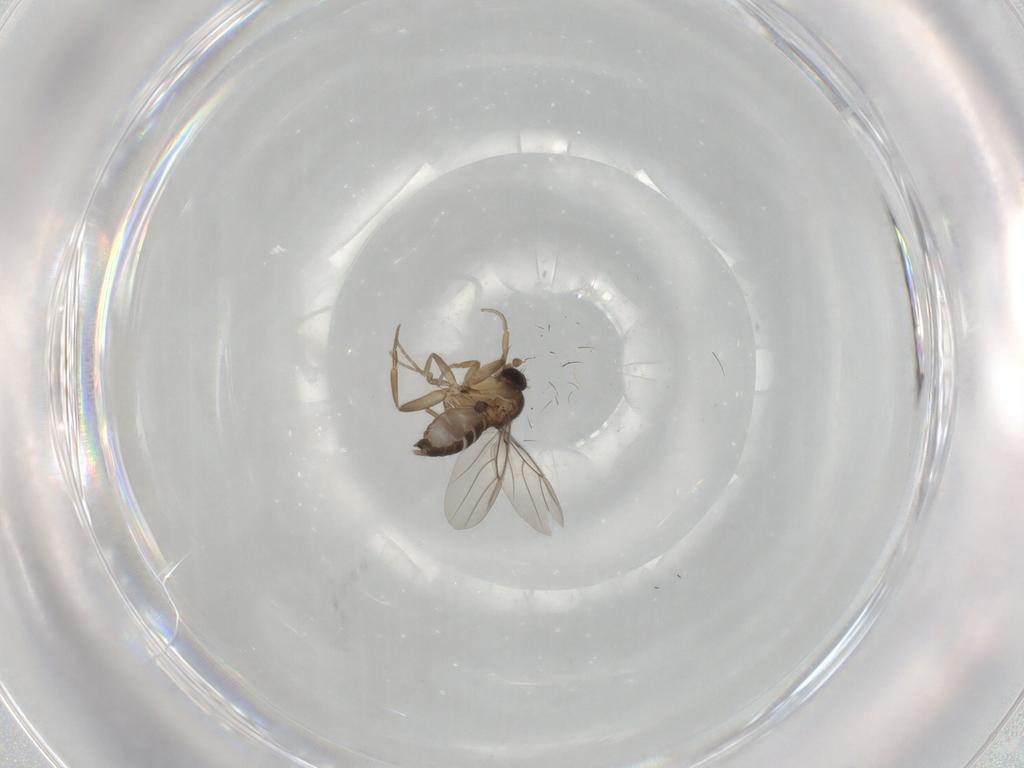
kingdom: Animalia
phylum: Arthropoda
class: Insecta
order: Diptera
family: Phoridae
